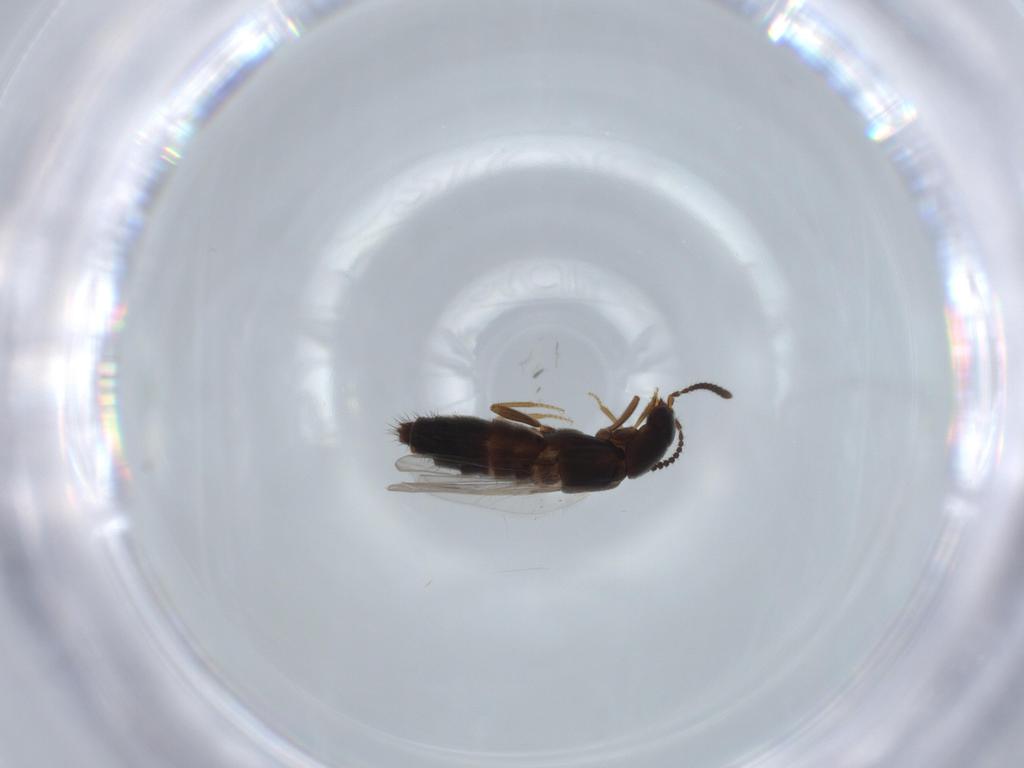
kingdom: Animalia
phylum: Arthropoda
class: Insecta
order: Coleoptera
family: Staphylinidae
